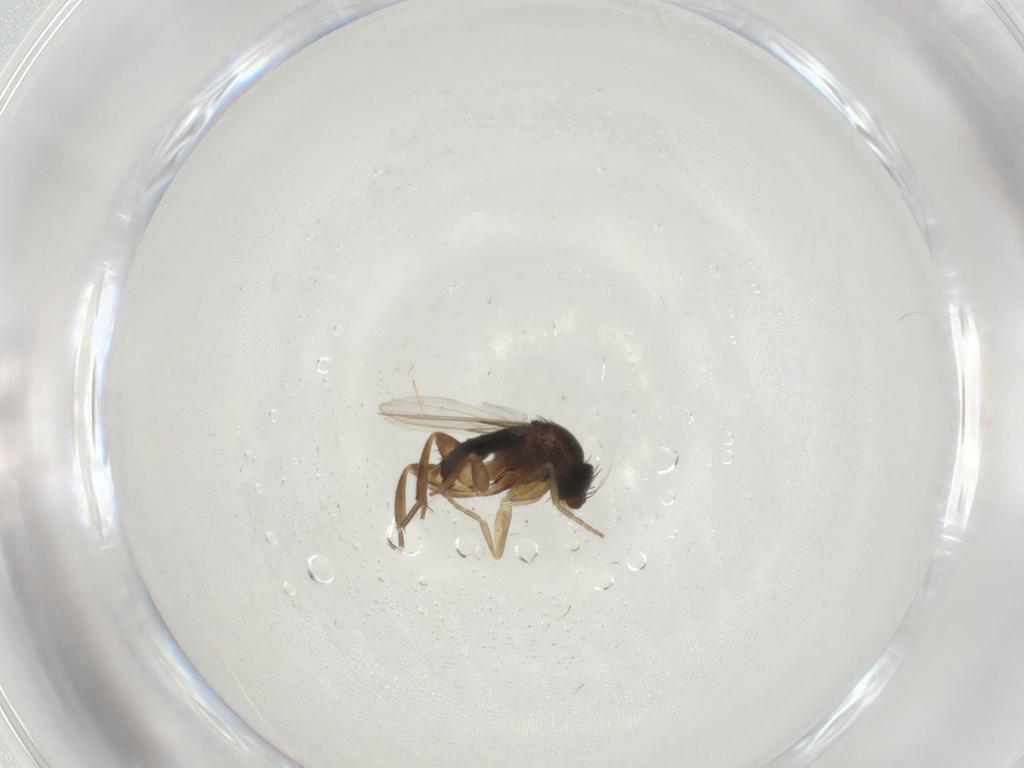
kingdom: Animalia
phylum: Arthropoda
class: Insecta
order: Diptera
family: Phoridae
